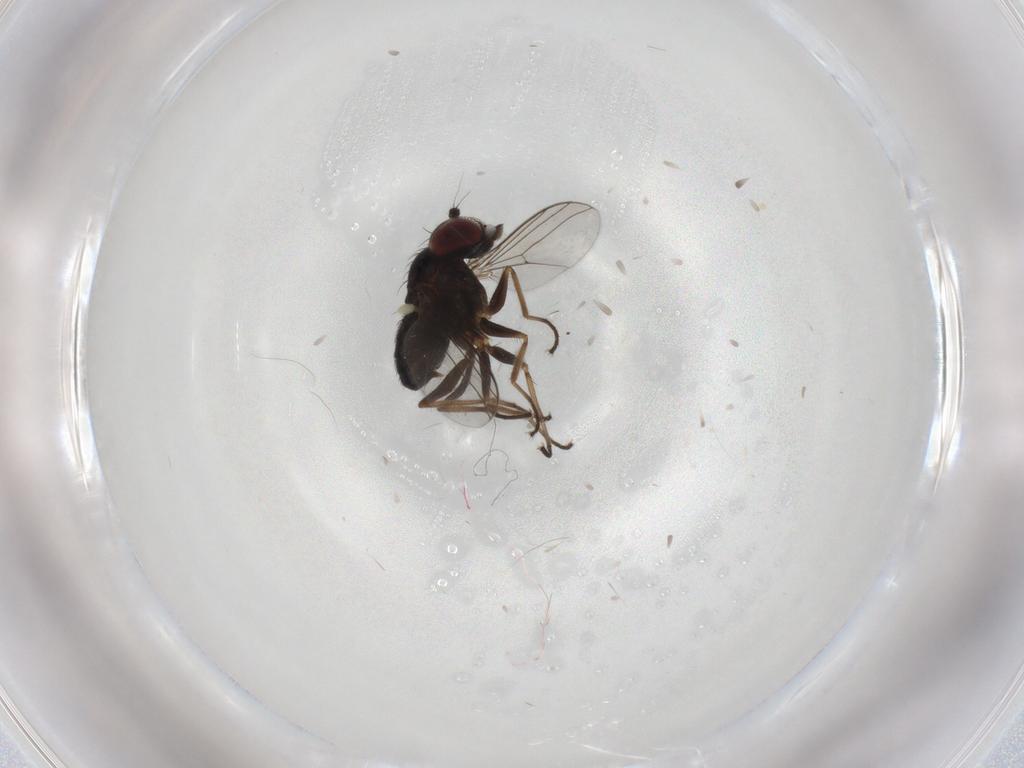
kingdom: Animalia
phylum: Arthropoda
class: Insecta
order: Diptera
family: Dolichopodidae
